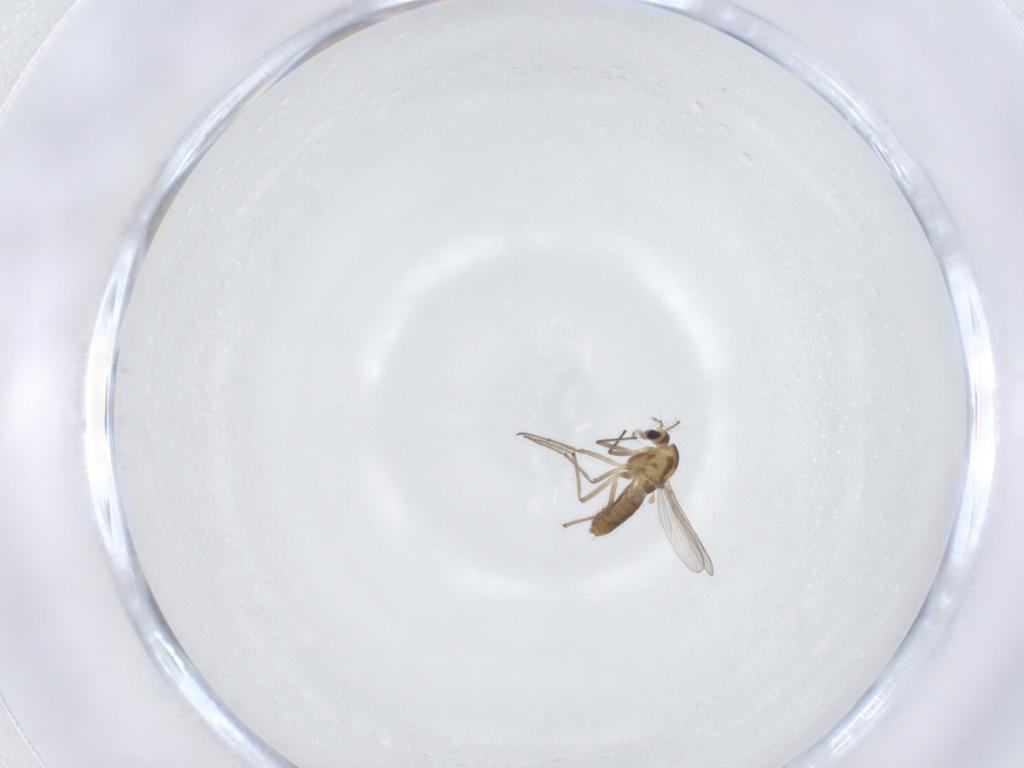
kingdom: Animalia
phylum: Arthropoda
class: Insecta
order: Diptera
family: Chironomidae
